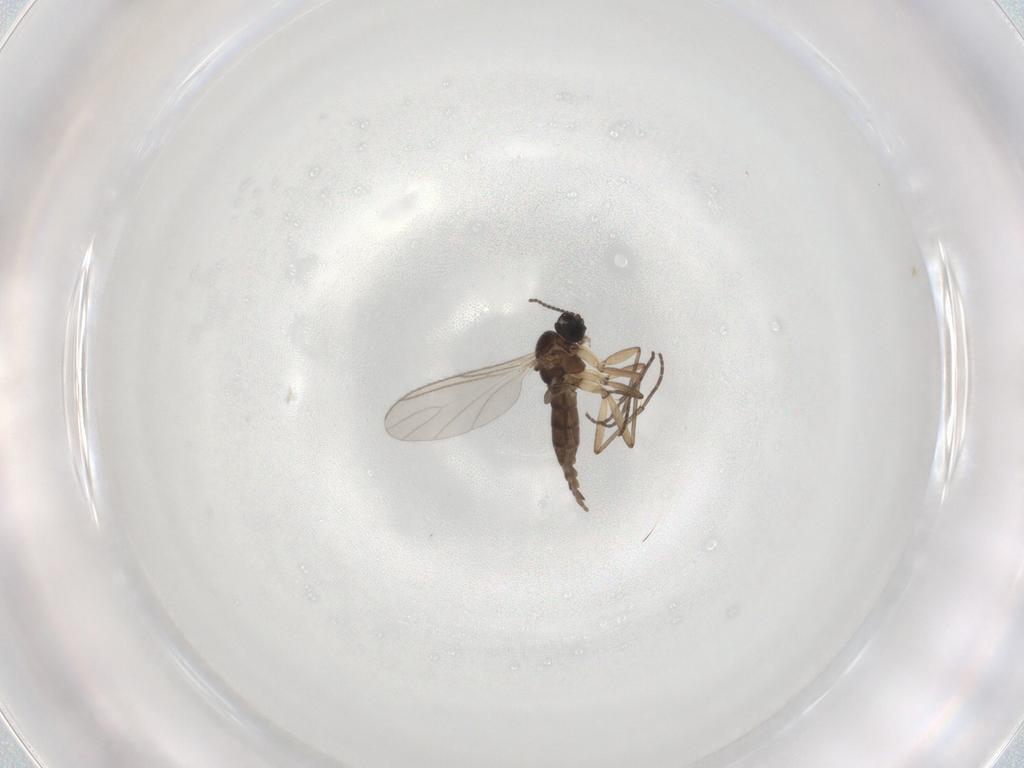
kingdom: Animalia
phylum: Arthropoda
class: Insecta
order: Diptera
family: Sciaridae
